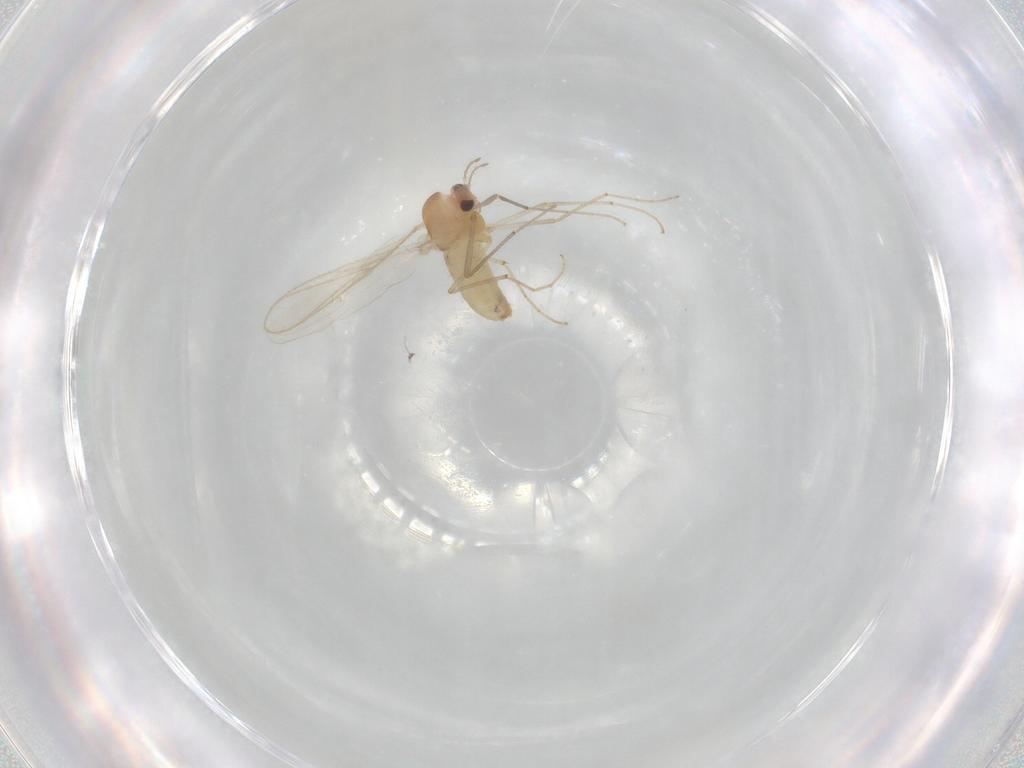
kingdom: Animalia
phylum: Arthropoda
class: Insecta
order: Diptera
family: Chironomidae
